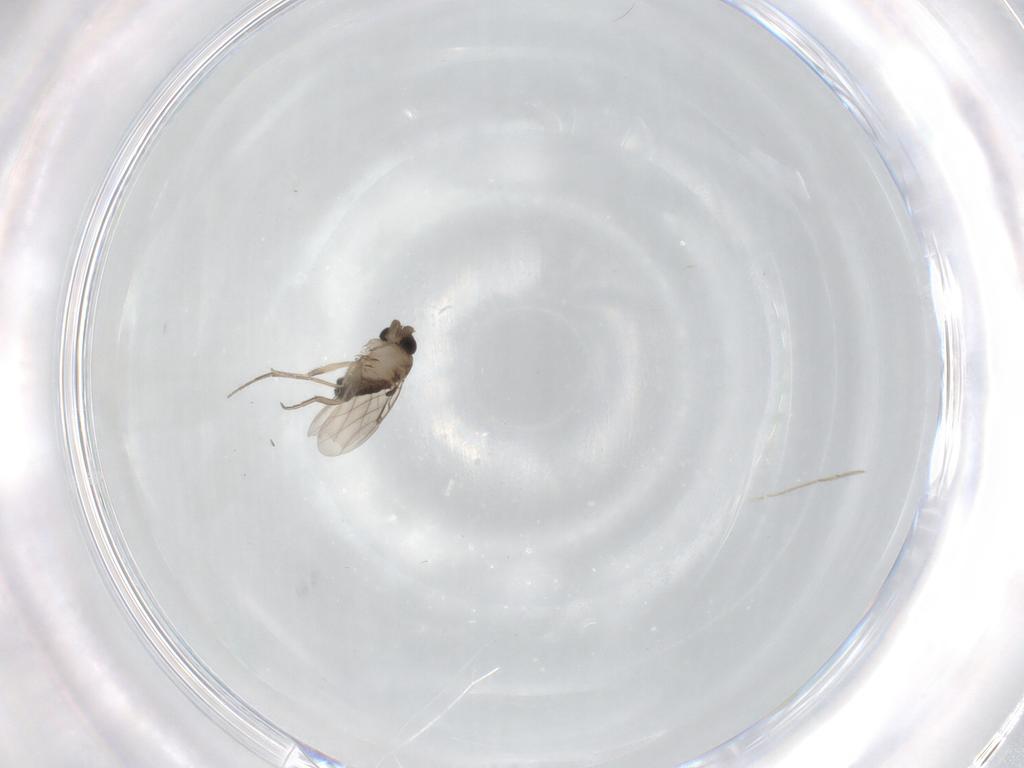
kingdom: Animalia
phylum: Arthropoda
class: Insecta
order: Diptera
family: Phoridae
